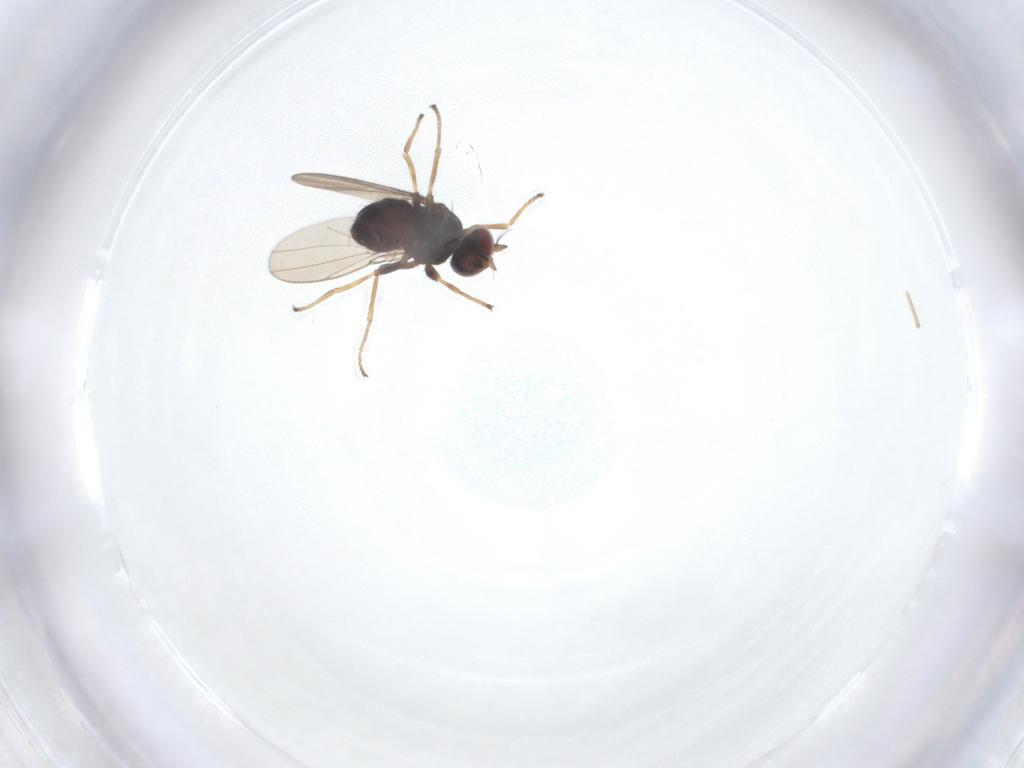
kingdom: Animalia
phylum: Arthropoda
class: Insecta
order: Diptera
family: Ephydridae
